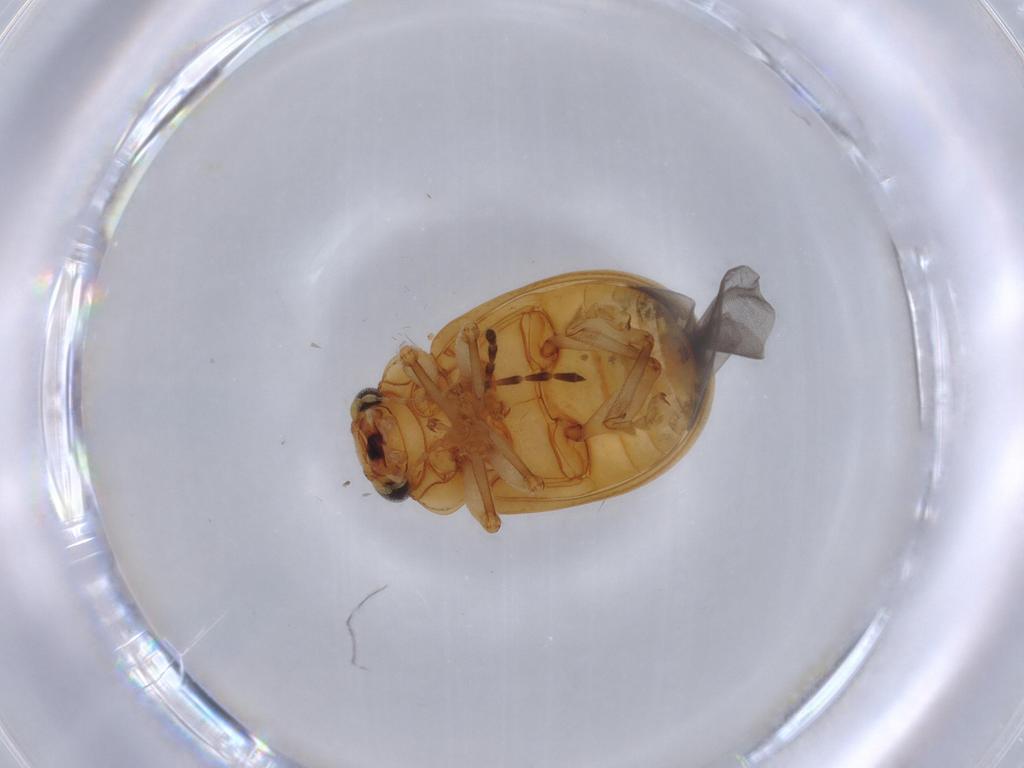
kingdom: Animalia
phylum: Arthropoda
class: Insecta
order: Coleoptera
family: Chrysomelidae
